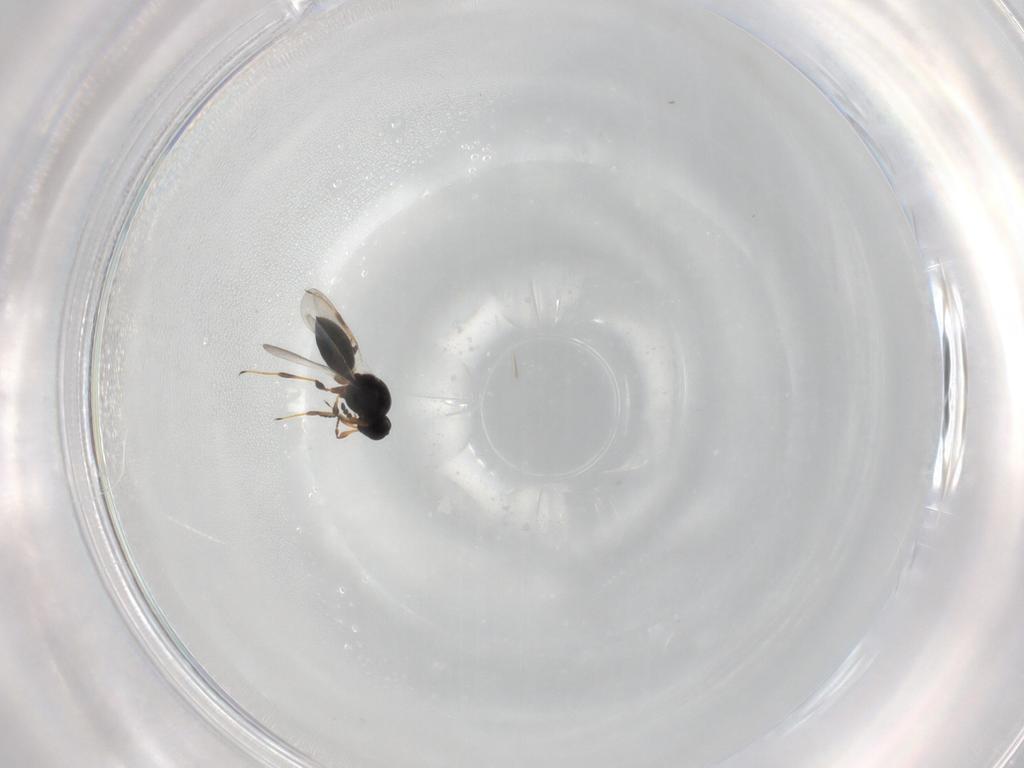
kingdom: Animalia
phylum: Arthropoda
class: Insecta
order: Hymenoptera
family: Platygastridae
